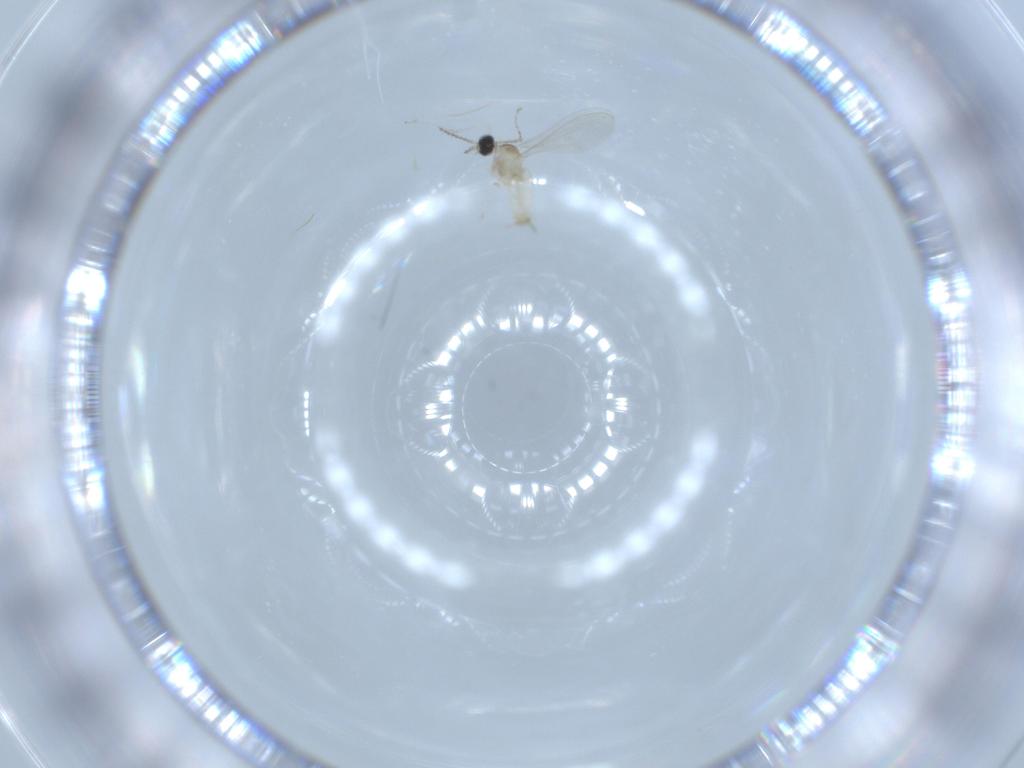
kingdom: Animalia
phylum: Arthropoda
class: Insecta
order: Diptera
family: Cecidomyiidae
